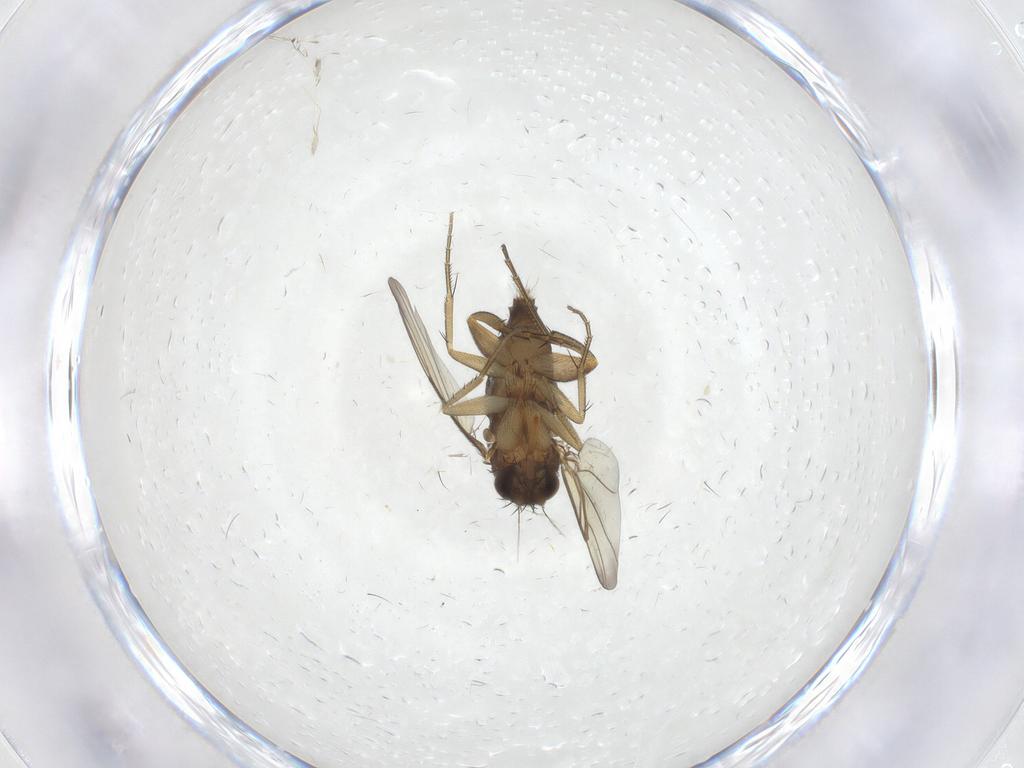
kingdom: Animalia
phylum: Arthropoda
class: Insecta
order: Diptera
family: Phoridae
